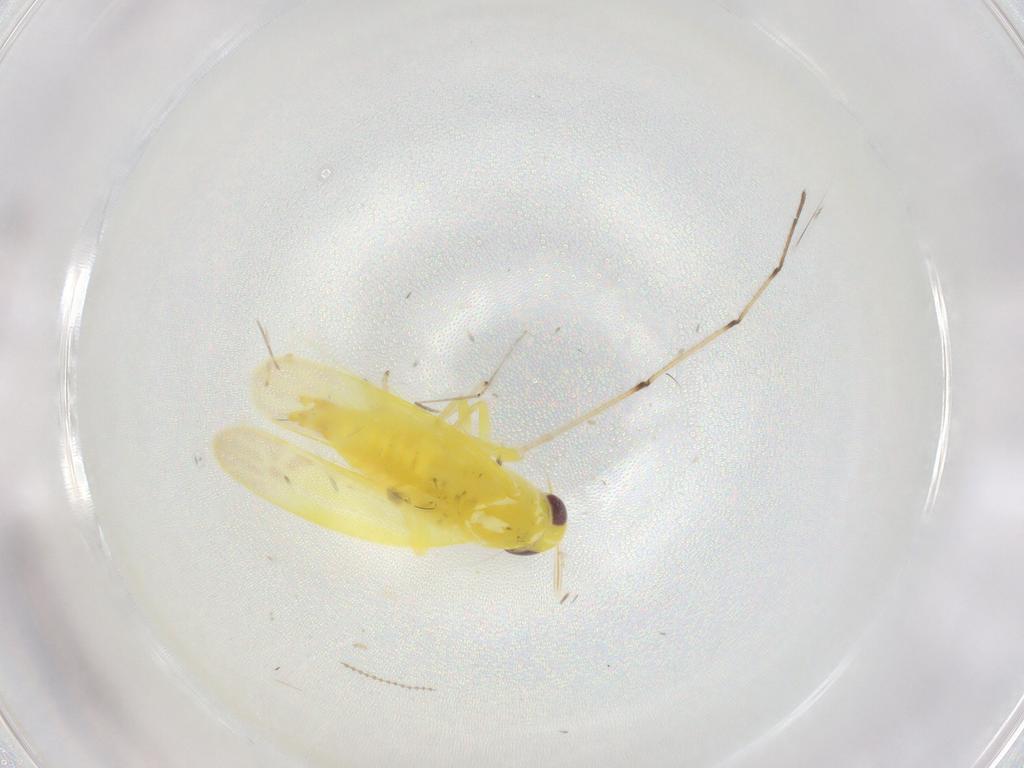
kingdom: Animalia
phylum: Arthropoda
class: Insecta
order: Hemiptera
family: Cicadellidae
